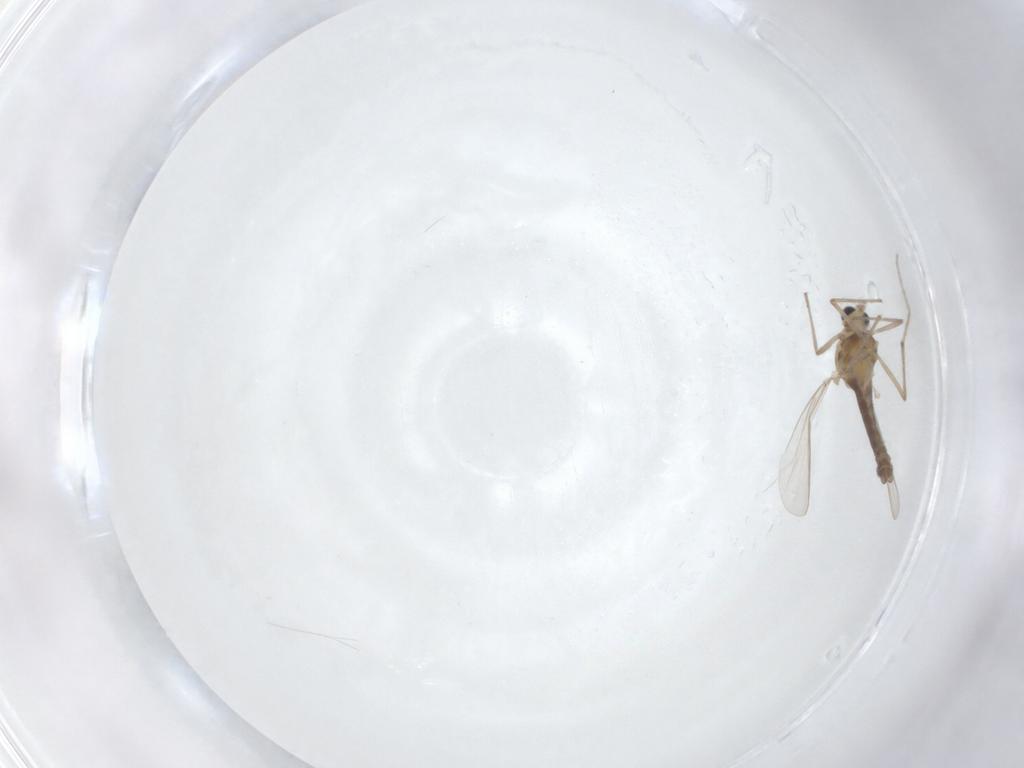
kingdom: Animalia
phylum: Arthropoda
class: Insecta
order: Diptera
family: Chironomidae
